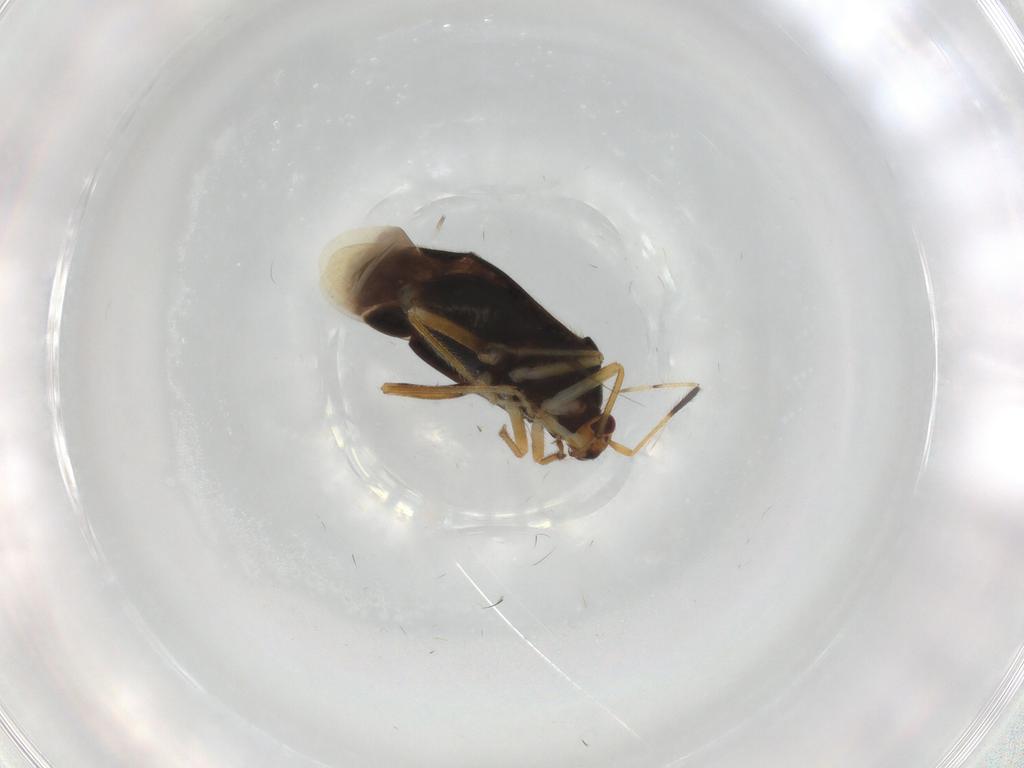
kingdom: Animalia
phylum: Arthropoda
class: Insecta
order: Hemiptera
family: Miridae
